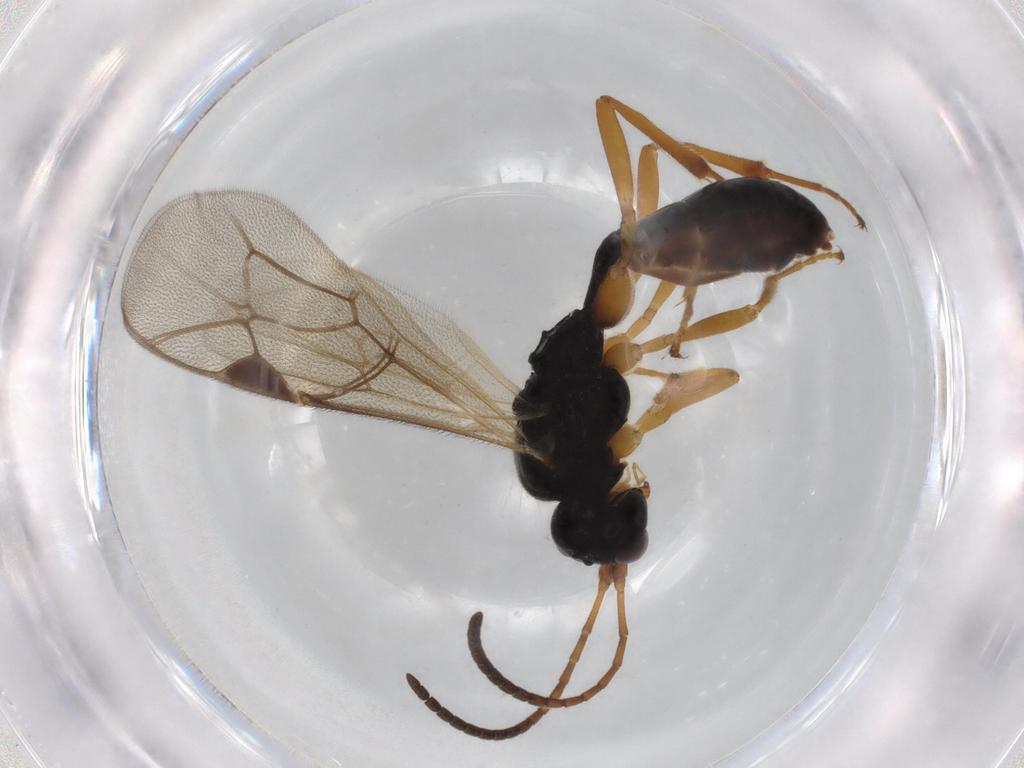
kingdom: Animalia
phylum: Arthropoda
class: Insecta
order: Hymenoptera
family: Ichneumonidae
